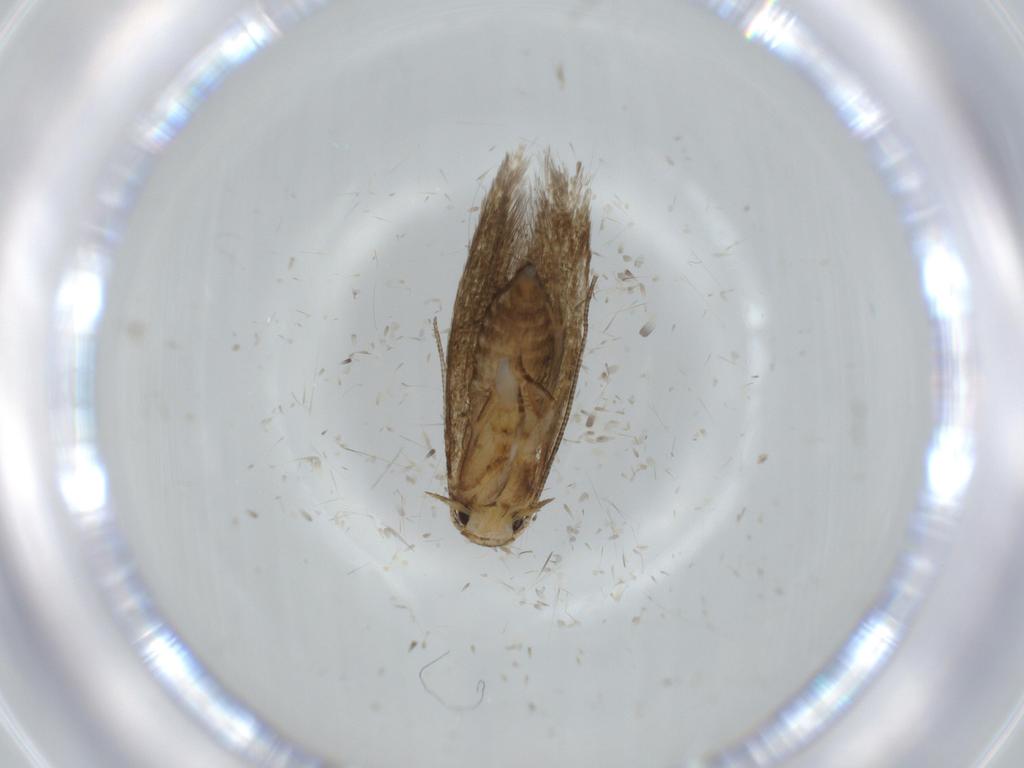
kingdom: Animalia
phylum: Arthropoda
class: Insecta
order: Lepidoptera
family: Tineidae
